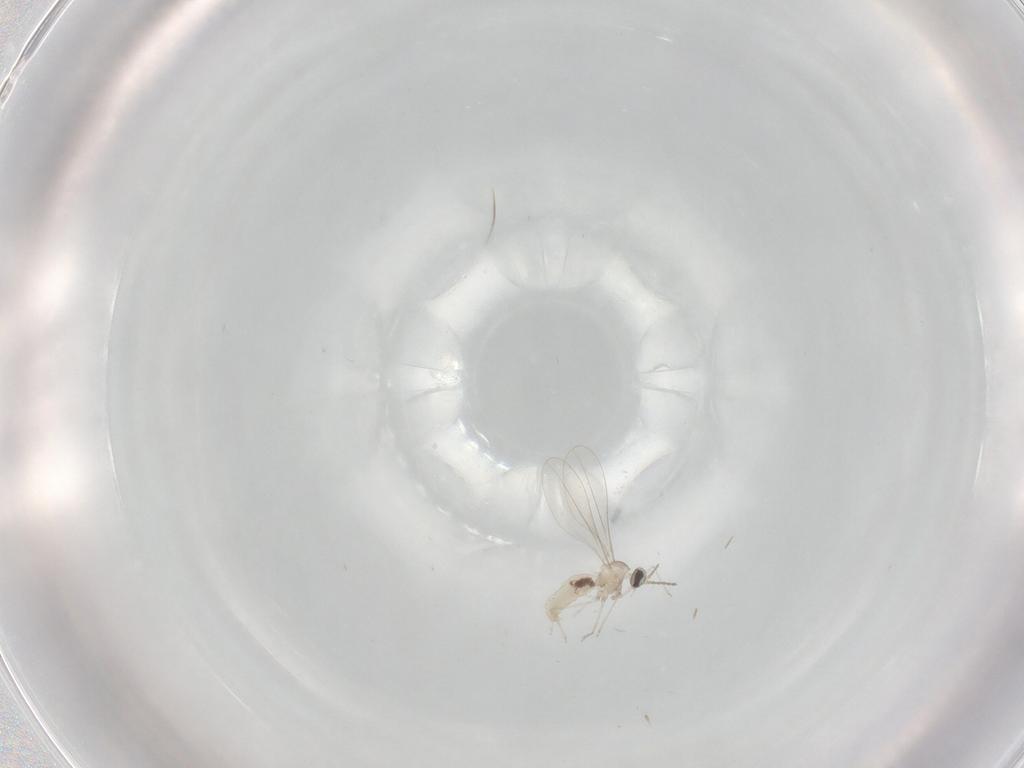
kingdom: Animalia
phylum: Arthropoda
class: Insecta
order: Diptera
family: Cecidomyiidae
